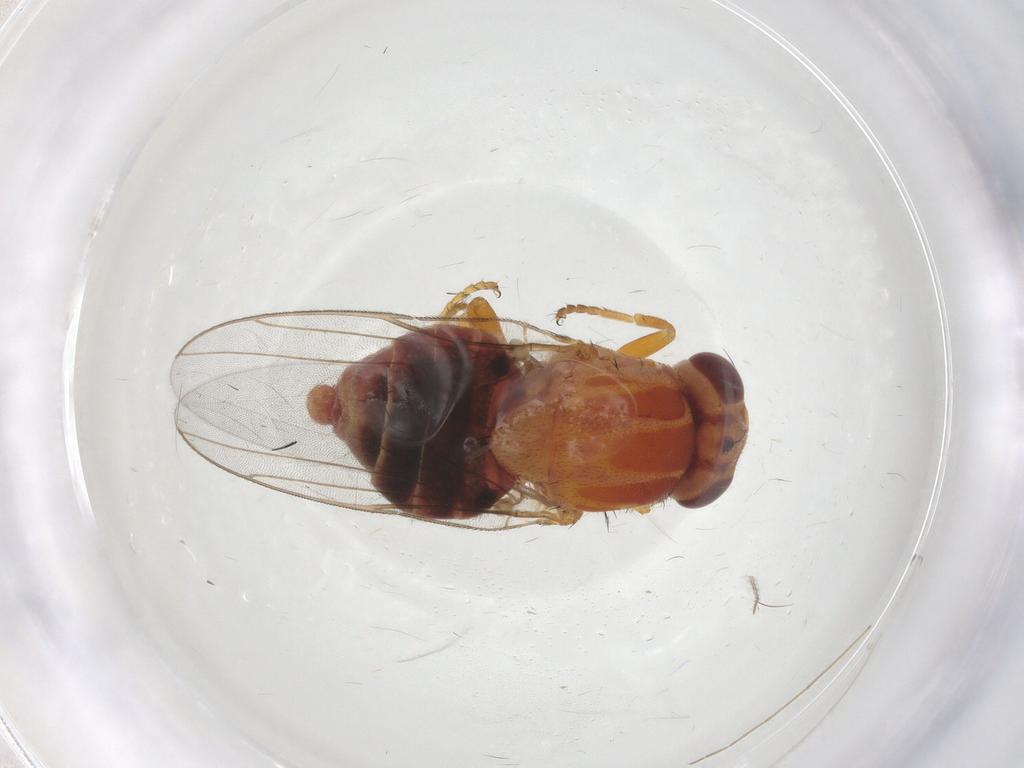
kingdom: Animalia
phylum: Arthropoda
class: Insecta
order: Diptera
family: Chloropidae
